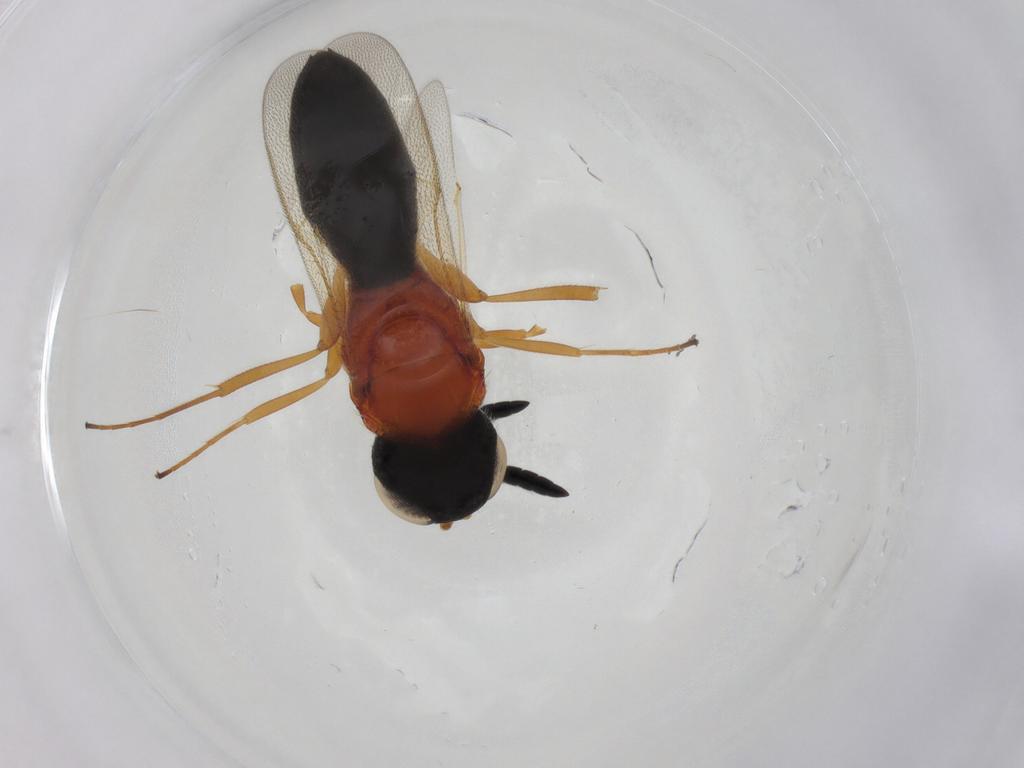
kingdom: Animalia
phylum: Arthropoda
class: Insecta
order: Hymenoptera
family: Scelionidae
